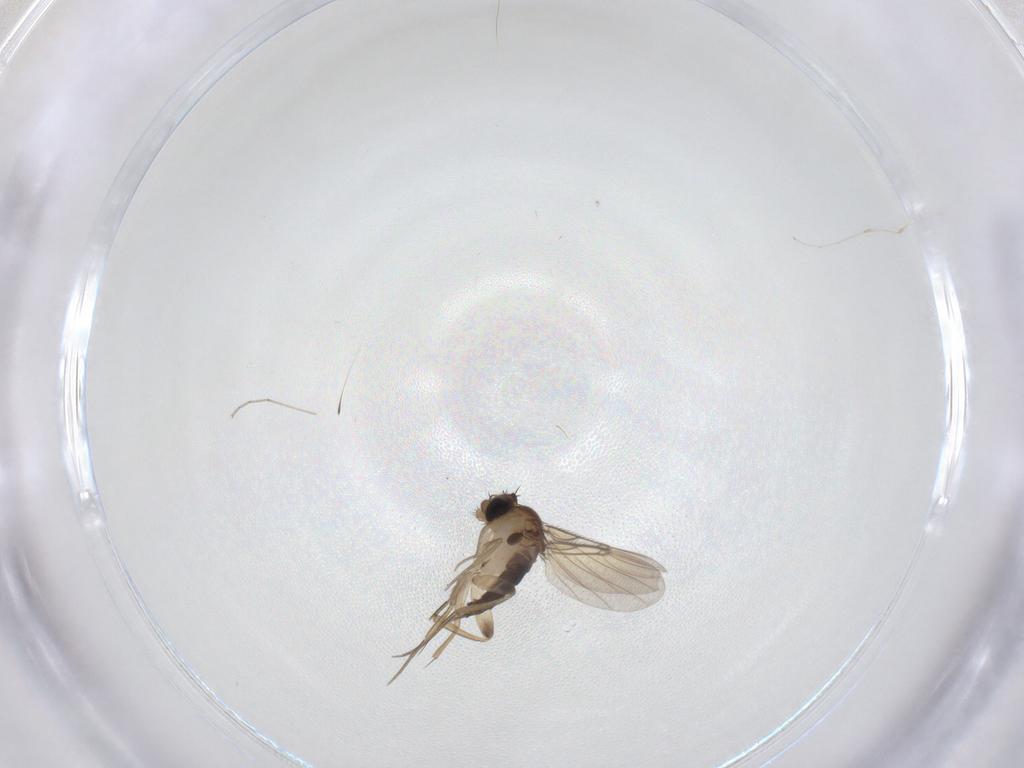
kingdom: Animalia
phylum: Arthropoda
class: Insecta
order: Diptera
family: Phoridae
